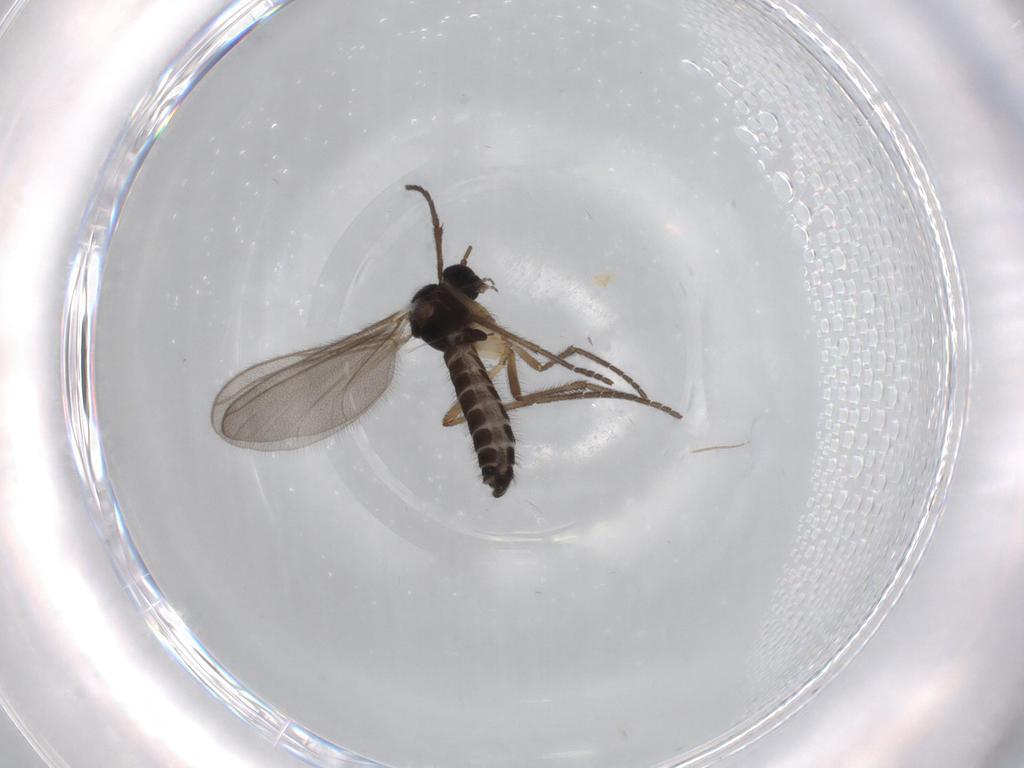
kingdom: Animalia
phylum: Arthropoda
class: Insecta
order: Diptera
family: Mycetophilidae
